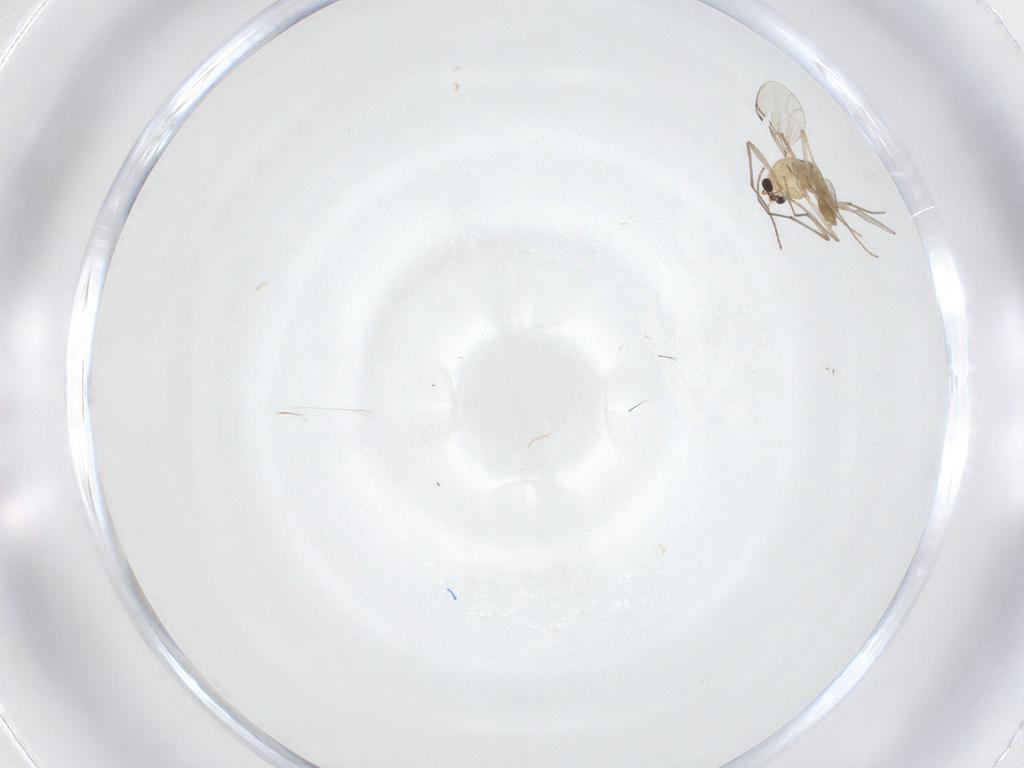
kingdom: Animalia
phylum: Arthropoda
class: Insecta
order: Diptera
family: Chironomidae
